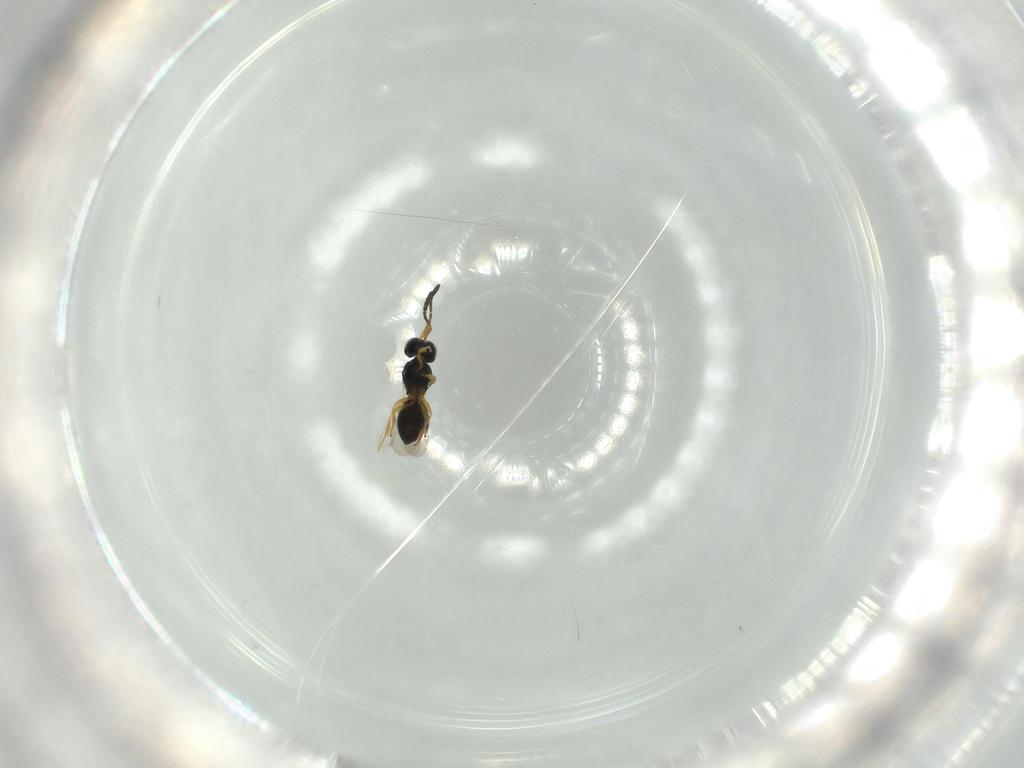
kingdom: Animalia
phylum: Arthropoda
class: Insecta
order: Hymenoptera
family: Scelionidae
